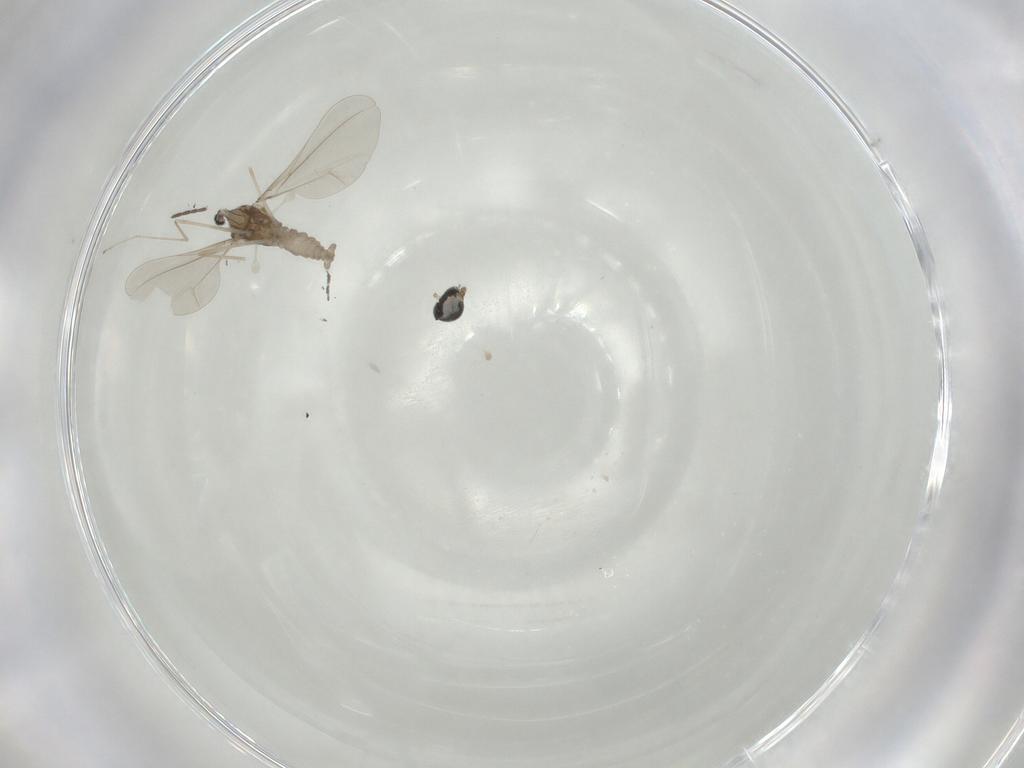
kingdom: Animalia
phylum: Arthropoda
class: Insecta
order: Diptera
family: Cecidomyiidae
